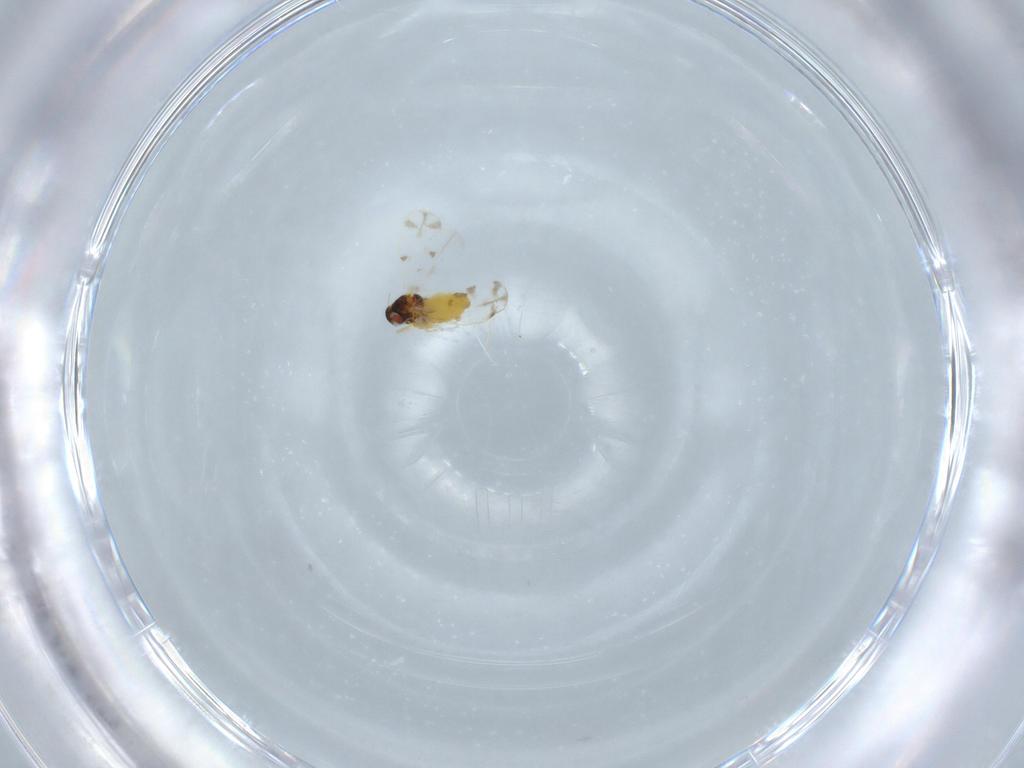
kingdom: Animalia
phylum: Arthropoda
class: Insecta
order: Hemiptera
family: Aleyrodidae
